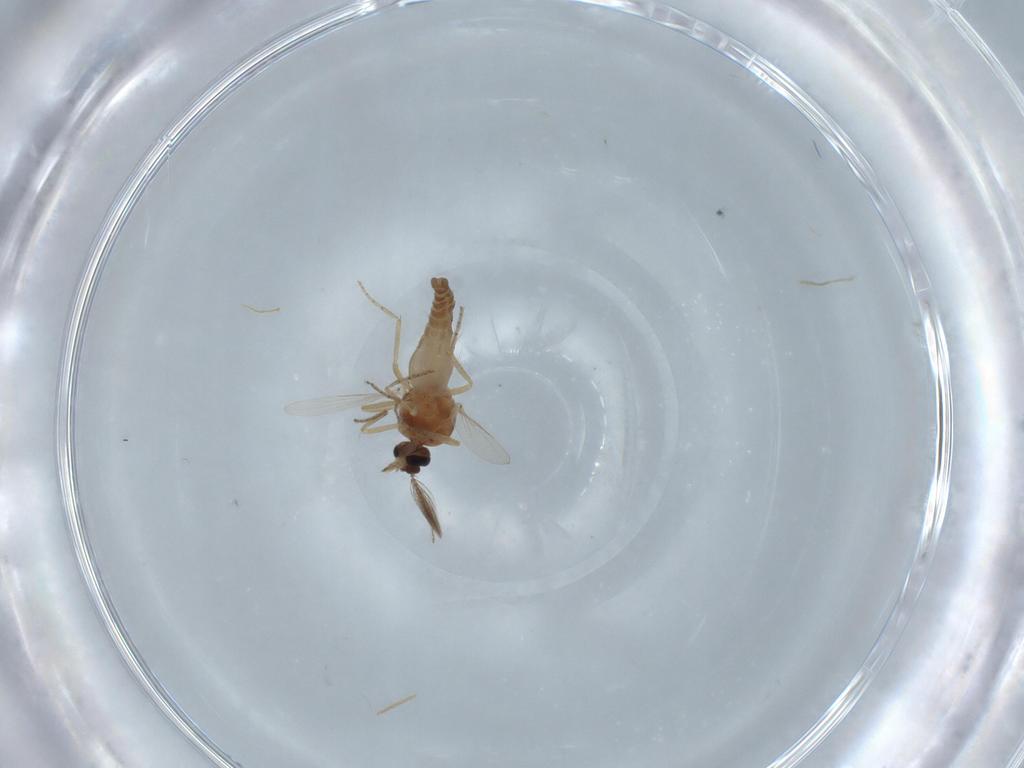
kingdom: Animalia
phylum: Arthropoda
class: Insecta
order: Diptera
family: Ceratopogonidae
